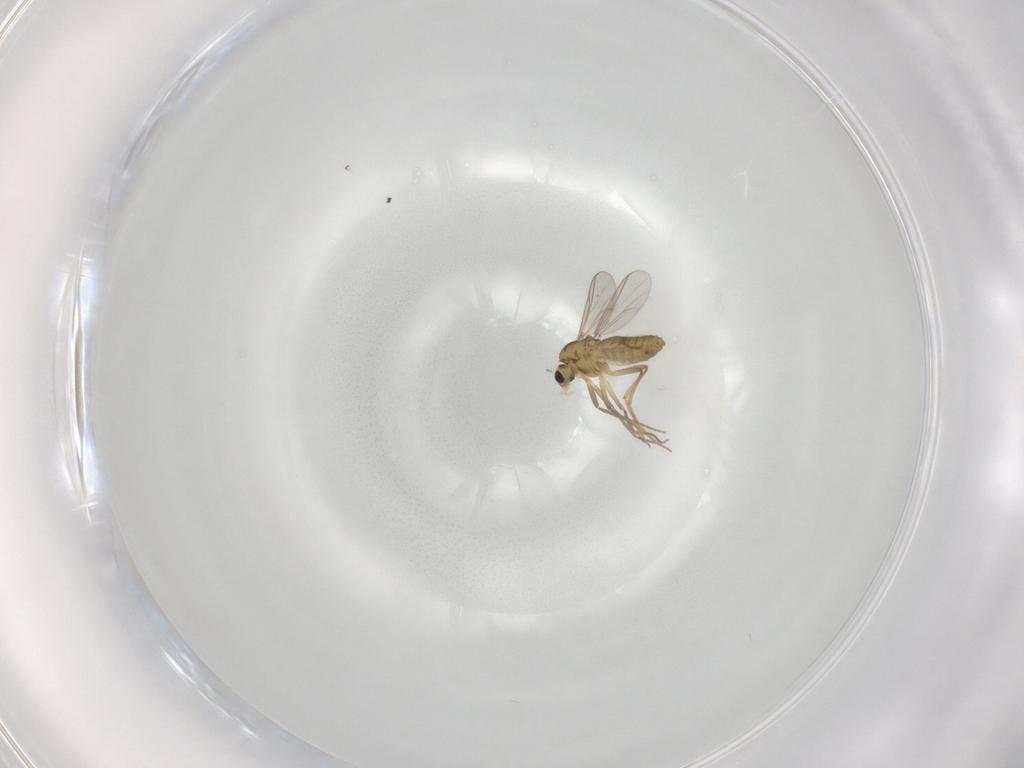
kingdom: Animalia
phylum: Arthropoda
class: Insecta
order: Diptera
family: Chironomidae
